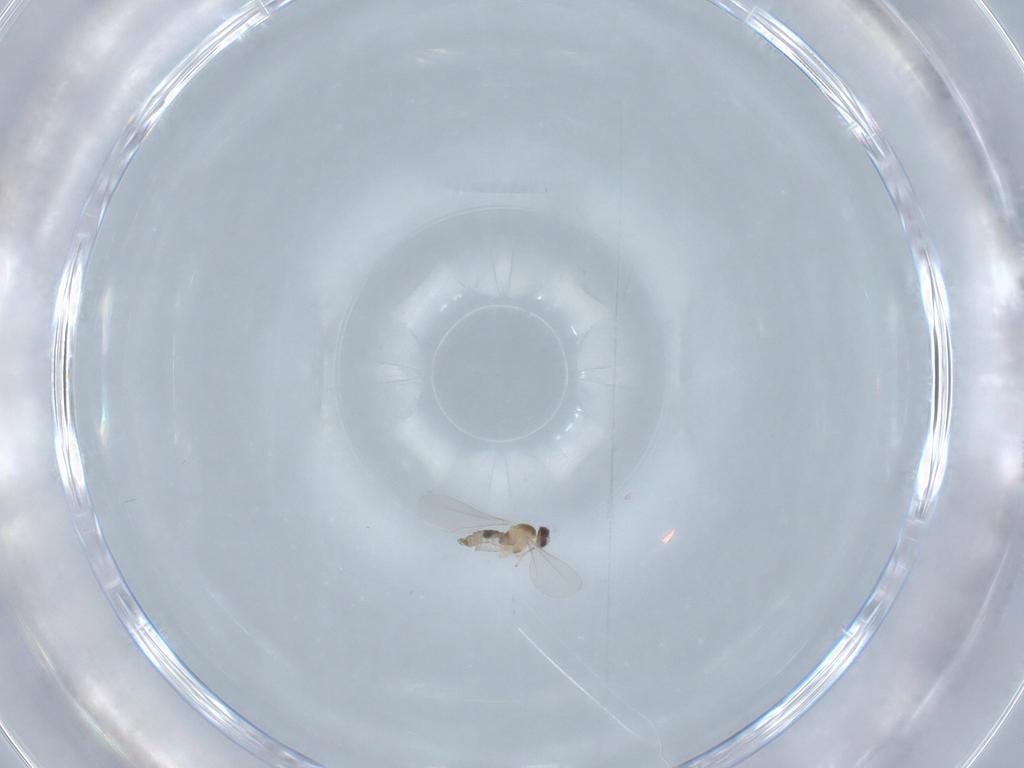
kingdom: Animalia
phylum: Arthropoda
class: Insecta
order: Diptera
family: Cecidomyiidae
